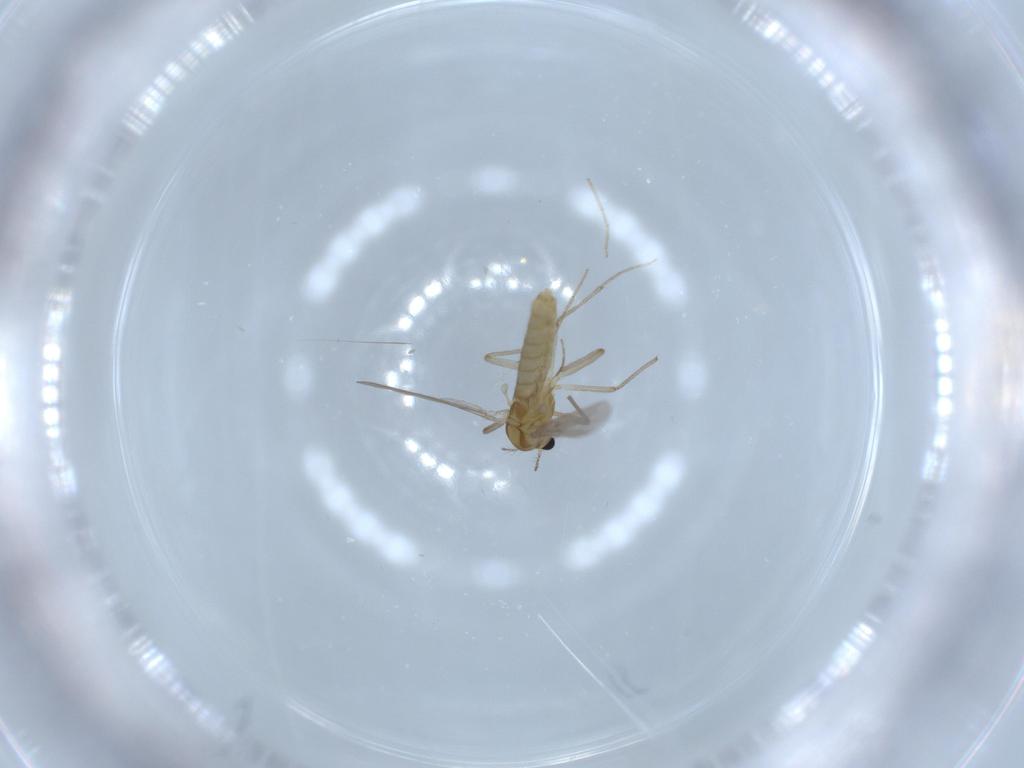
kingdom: Animalia
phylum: Arthropoda
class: Insecta
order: Diptera
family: Chironomidae
